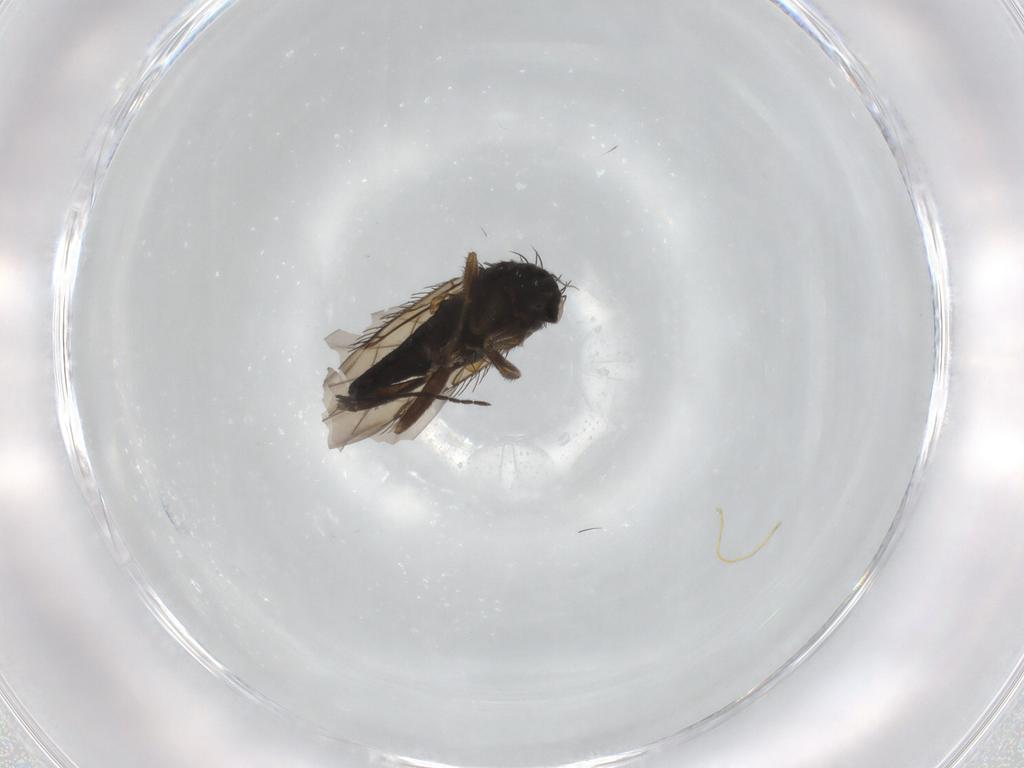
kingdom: Animalia
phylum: Arthropoda
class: Insecta
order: Diptera
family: Phoridae
